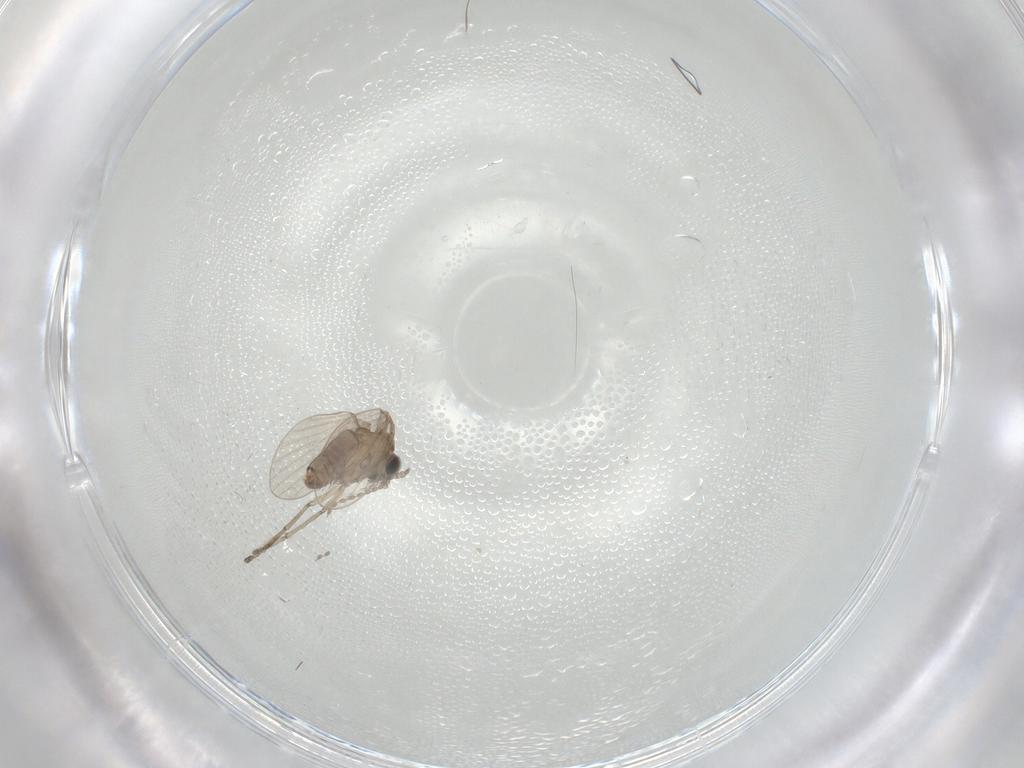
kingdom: Animalia
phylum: Arthropoda
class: Insecta
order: Diptera
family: Psychodidae
